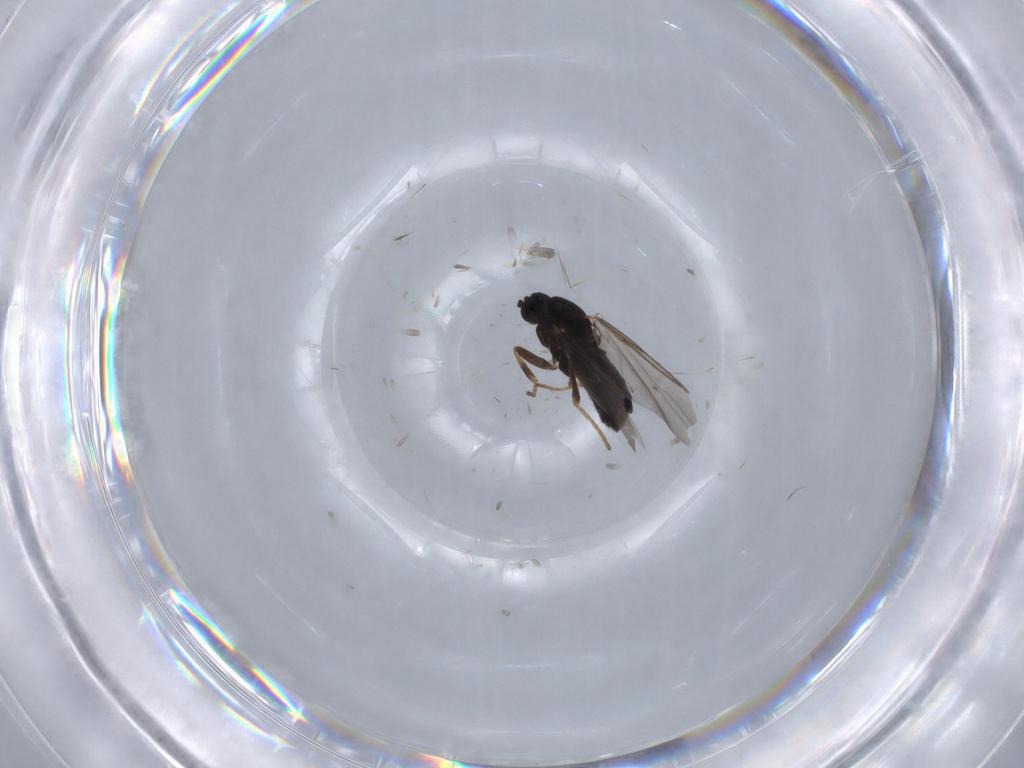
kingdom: Animalia
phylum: Arthropoda
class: Insecta
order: Diptera
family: Scatopsidae
